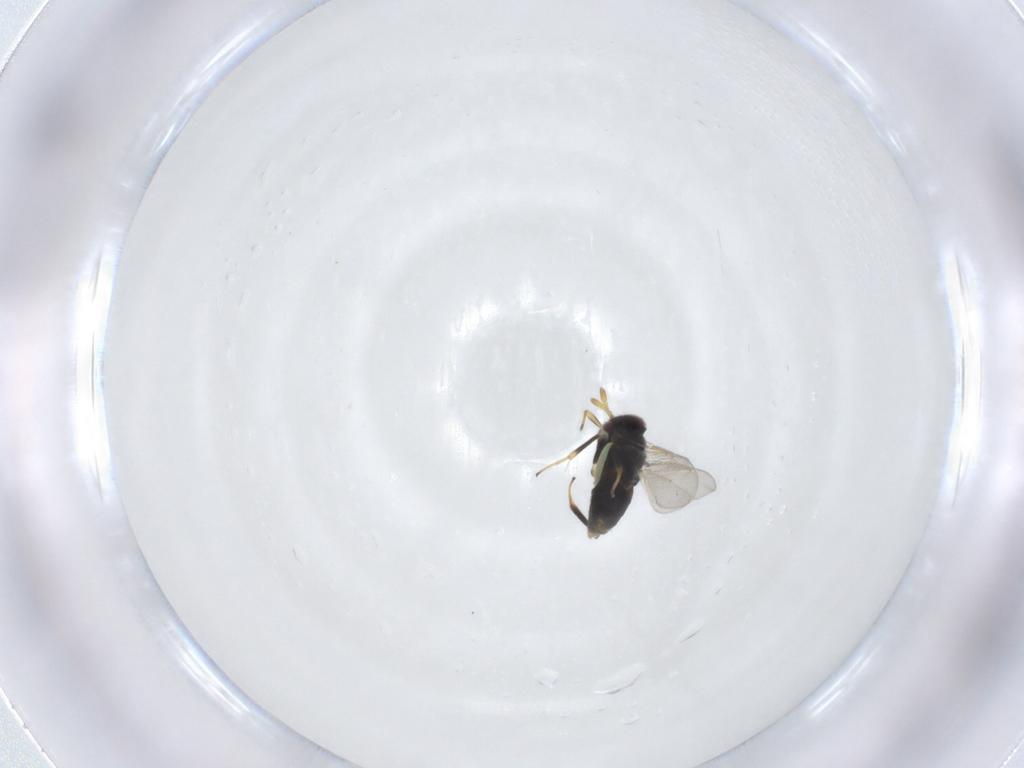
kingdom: Animalia
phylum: Arthropoda
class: Insecta
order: Hymenoptera
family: Aphelinidae
